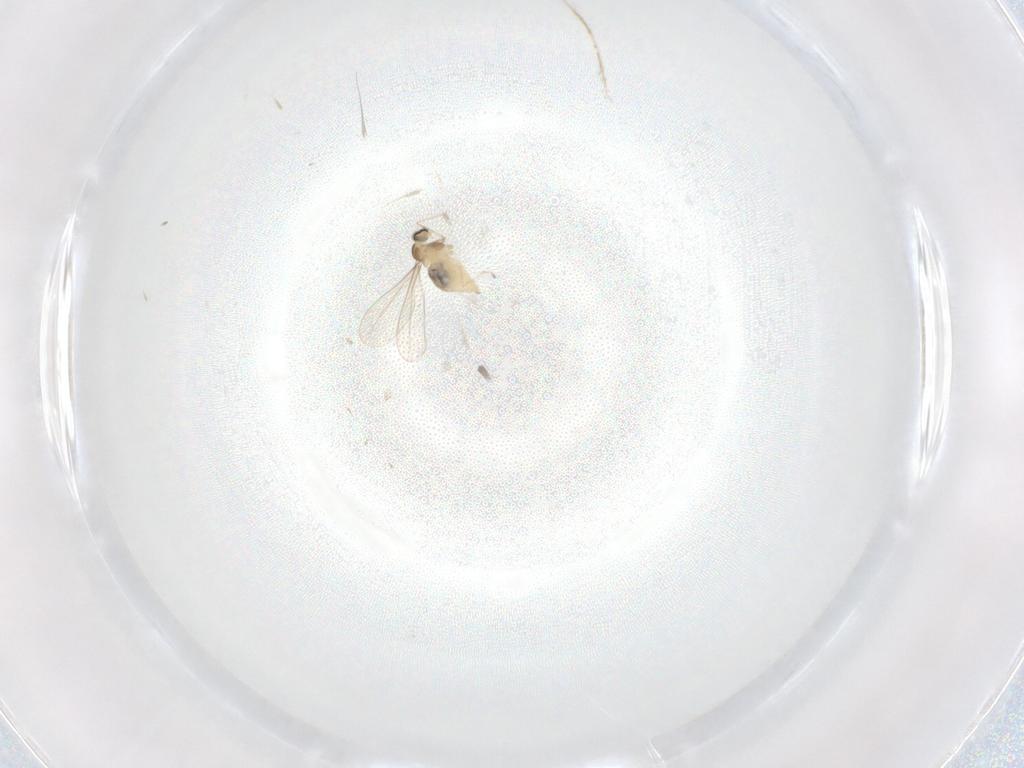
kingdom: Animalia
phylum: Arthropoda
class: Insecta
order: Diptera
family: Cecidomyiidae
